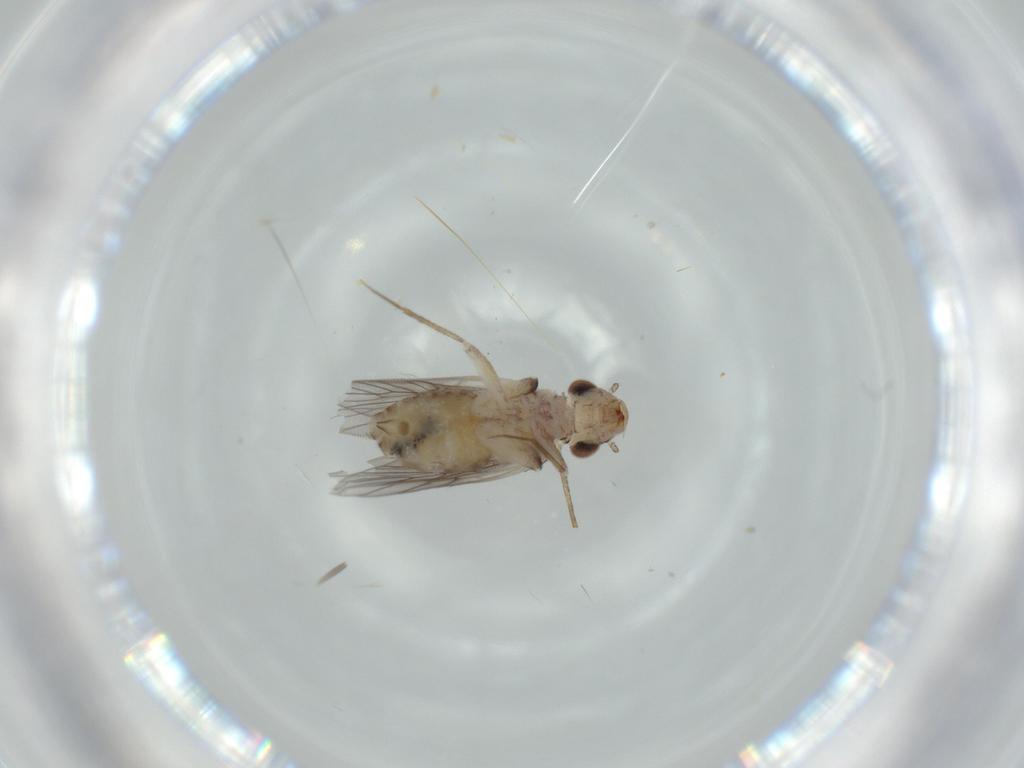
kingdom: Animalia
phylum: Arthropoda
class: Insecta
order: Psocodea
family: Lepidopsocidae
